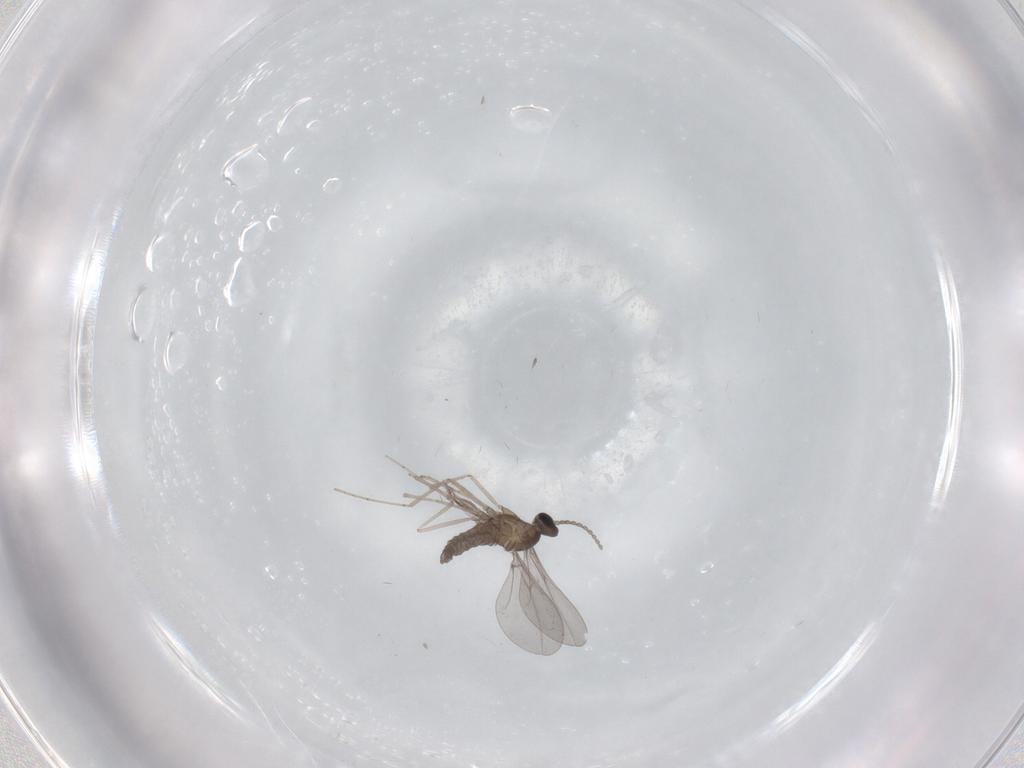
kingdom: Animalia
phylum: Arthropoda
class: Insecta
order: Diptera
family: Ceratopogonidae
